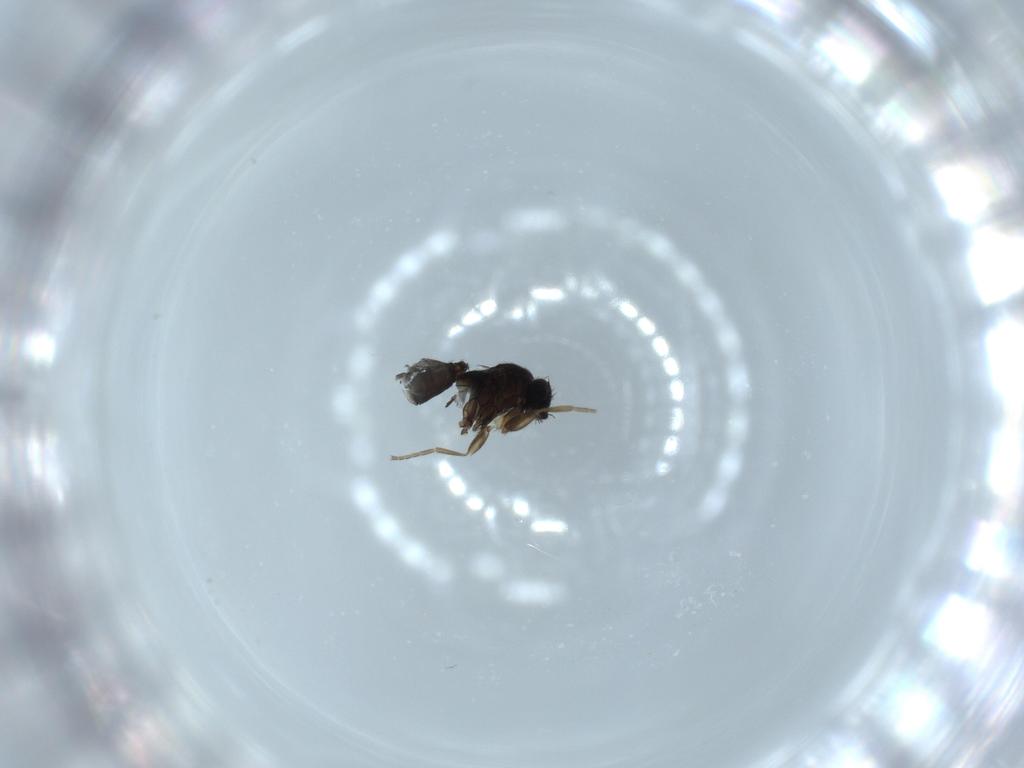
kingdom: Animalia
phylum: Arthropoda
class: Insecta
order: Diptera
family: Phoridae
